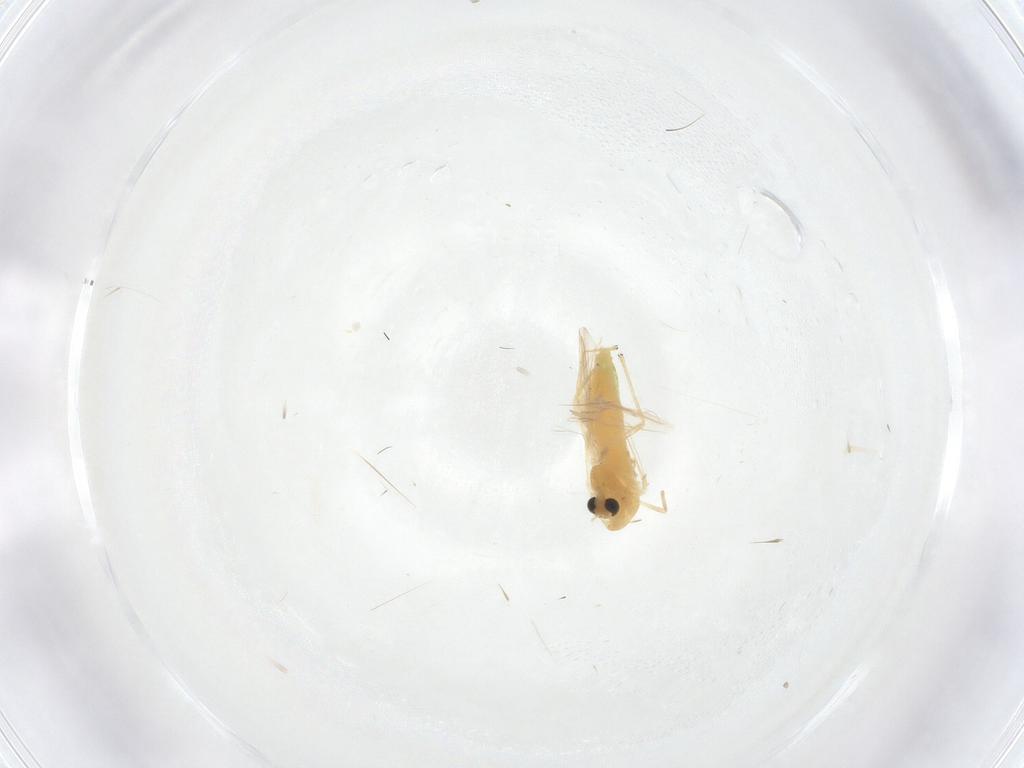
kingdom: Animalia
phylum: Arthropoda
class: Insecta
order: Diptera
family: Chironomidae
